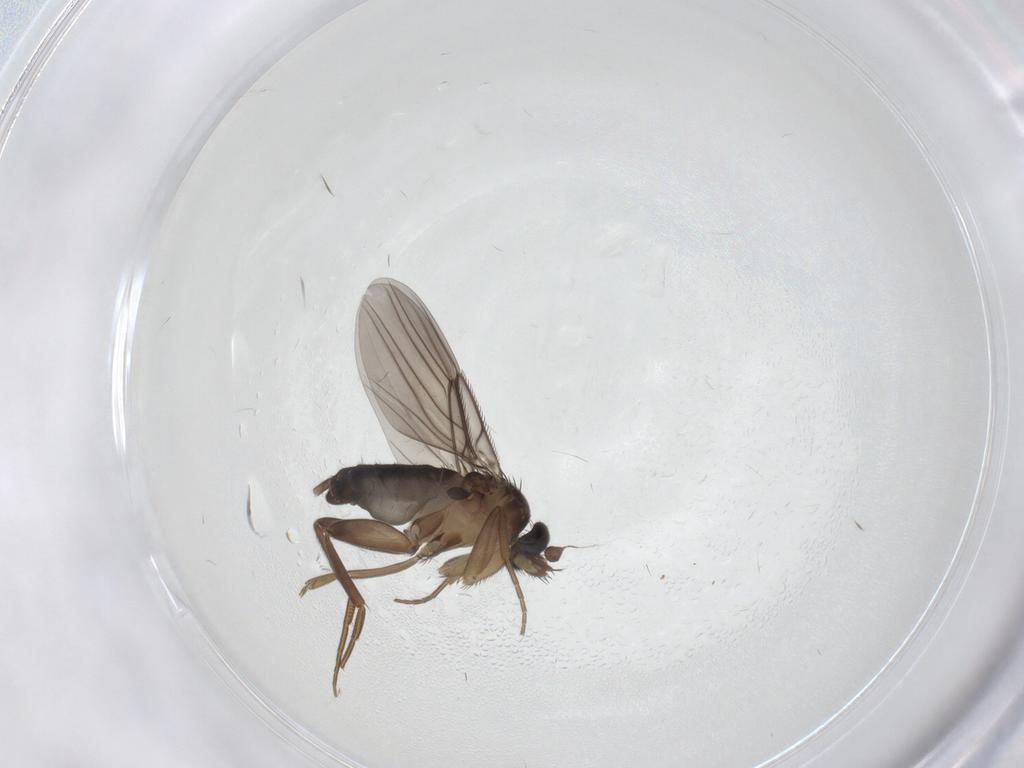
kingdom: Animalia
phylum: Arthropoda
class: Insecta
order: Diptera
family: Phoridae
